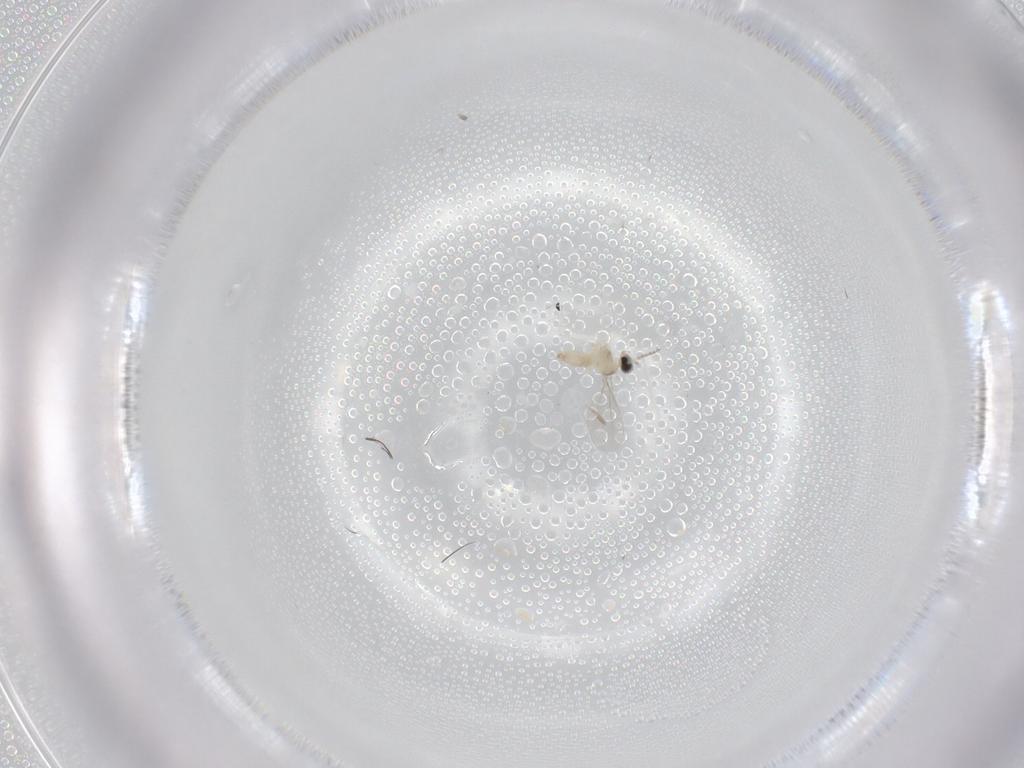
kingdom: Animalia
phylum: Arthropoda
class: Insecta
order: Diptera
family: Cecidomyiidae
